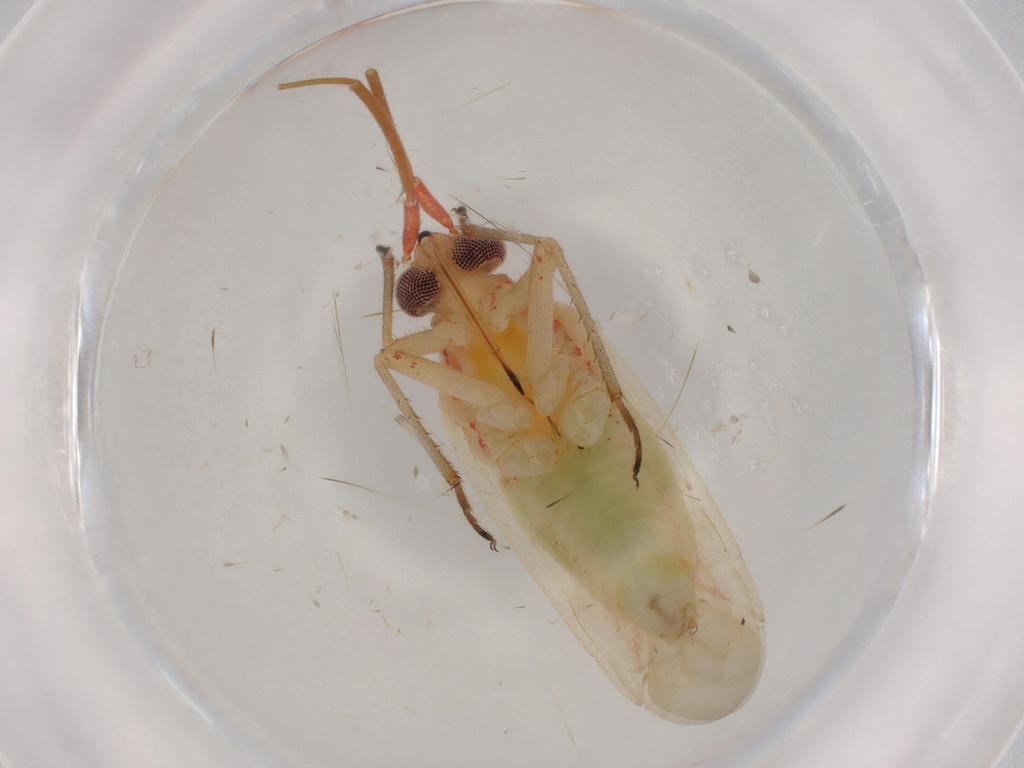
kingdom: Animalia
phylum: Arthropoda
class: Insecta
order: Hemiptera
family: Miridae
